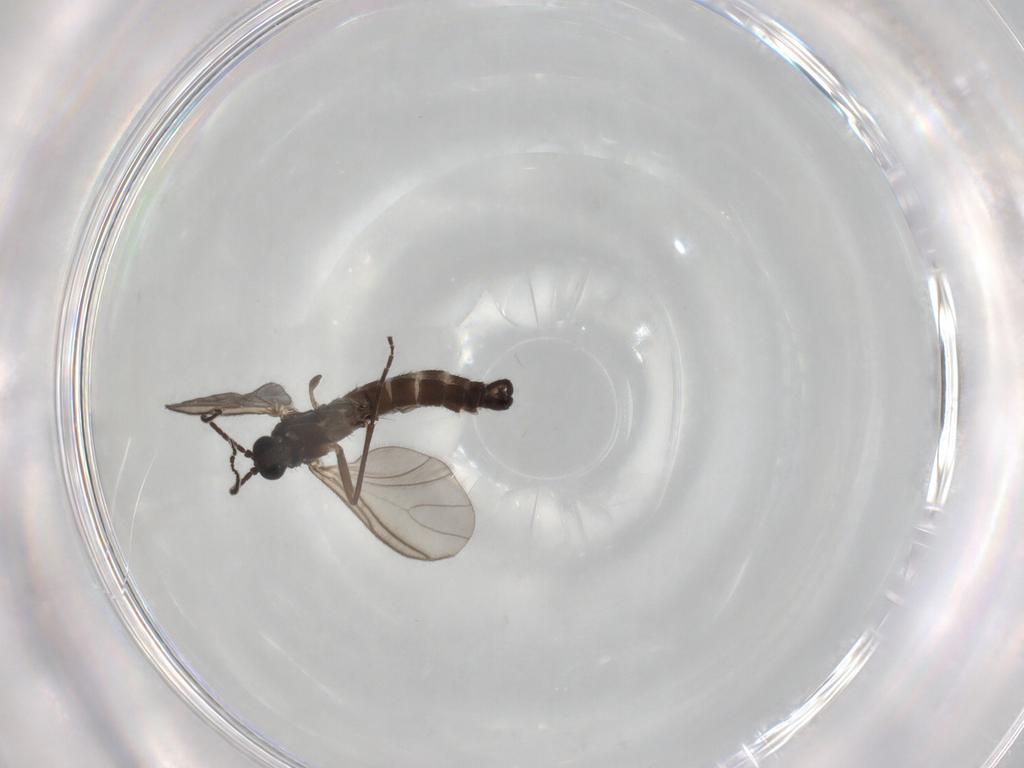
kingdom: Animalia
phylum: Arthropoda
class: Insecta
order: Diptera
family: Sciaridae
